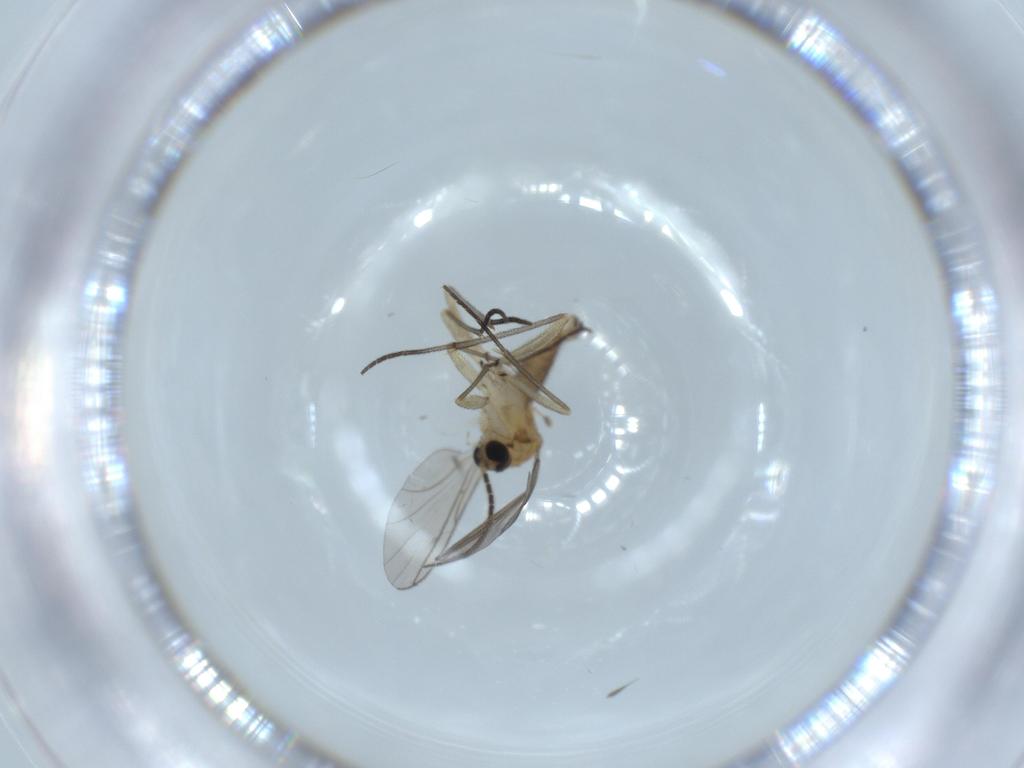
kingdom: Animalia
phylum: Arthropoda
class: Insecta
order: Diptera
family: Sciaridae
